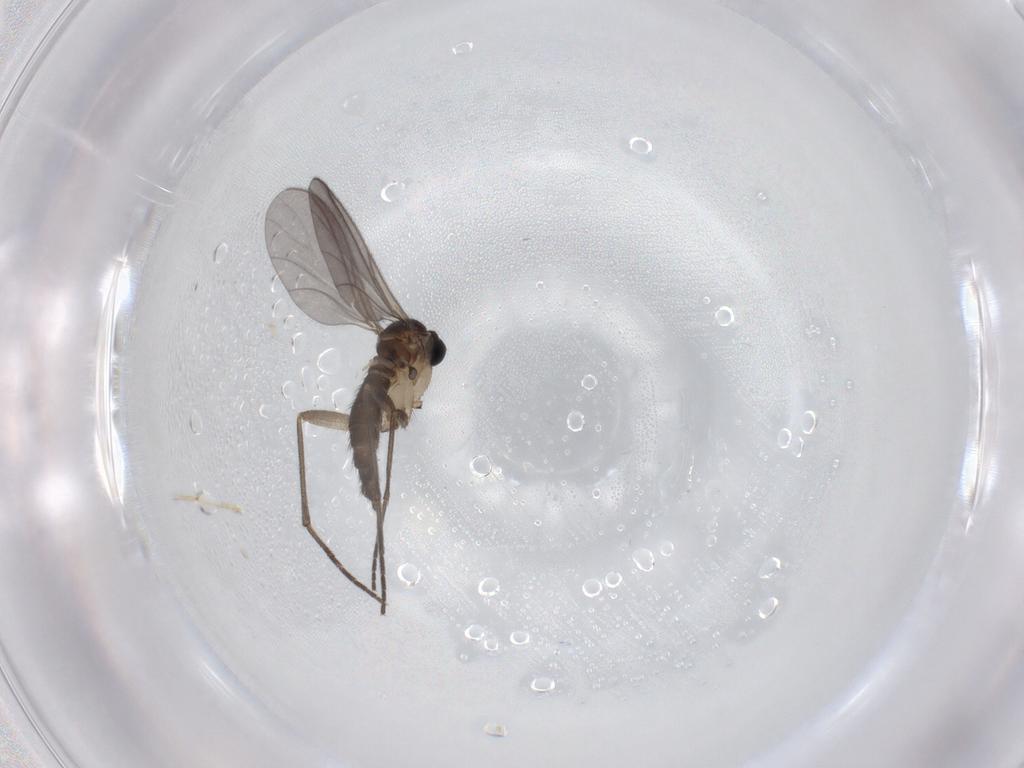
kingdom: Animalia
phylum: Arthropoda
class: Insecta
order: Diptera
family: Sciaridae
